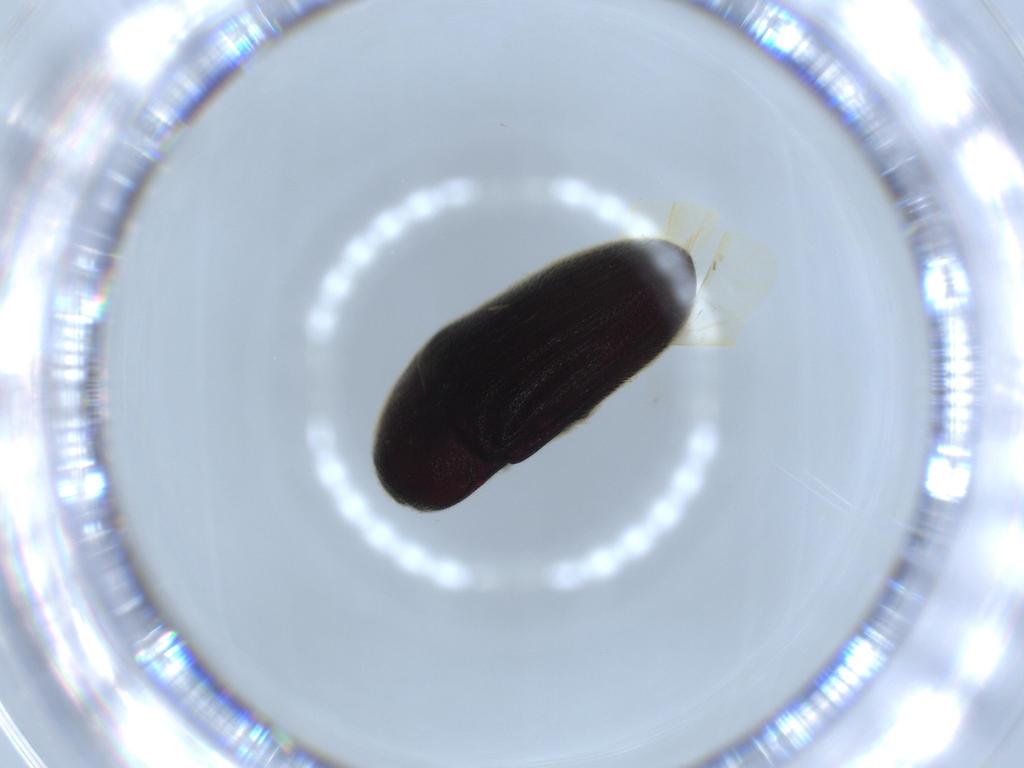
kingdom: Animalia
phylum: Arthropoda
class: Insecta
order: Coleoptera
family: Throscidae
